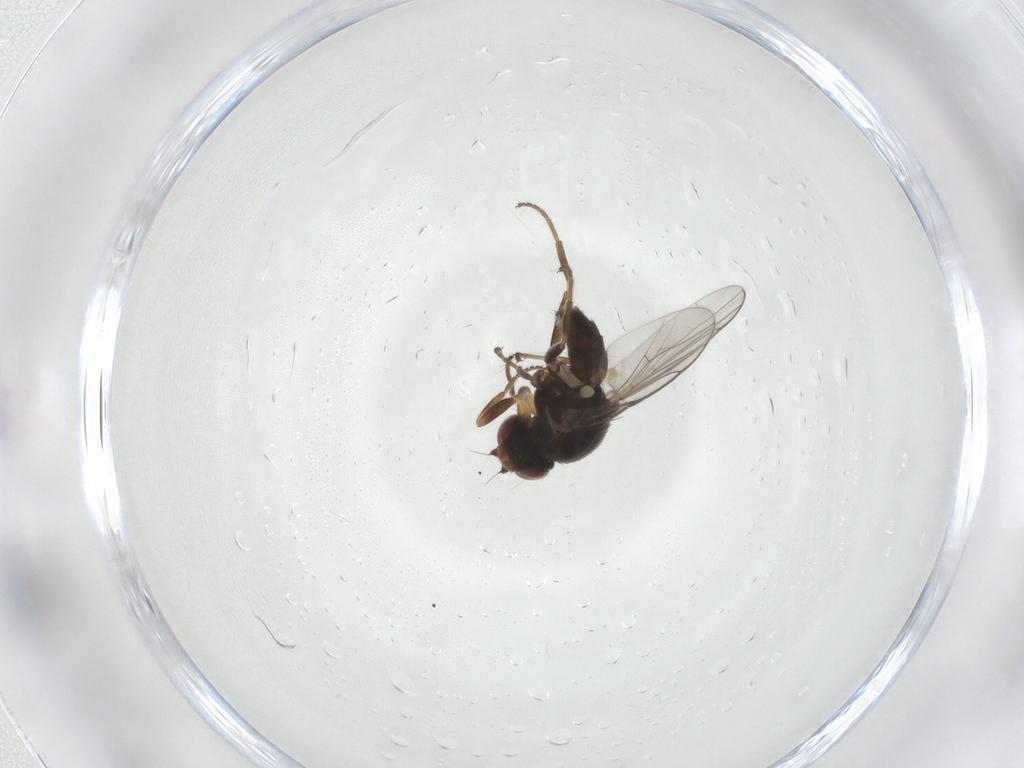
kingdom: Animalia
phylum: Arthropoda
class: Insecta
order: Diptera
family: Chloropidae
